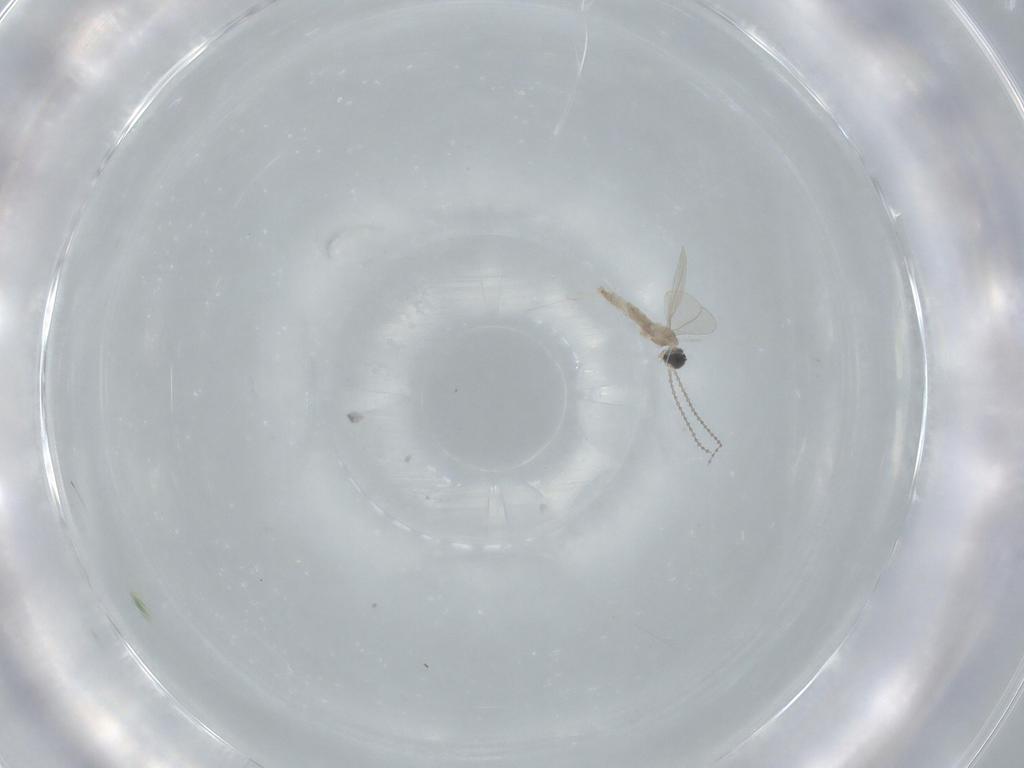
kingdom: Animalia
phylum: Arthropoda
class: Insecta
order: Diptera
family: Cecidomyiidae
